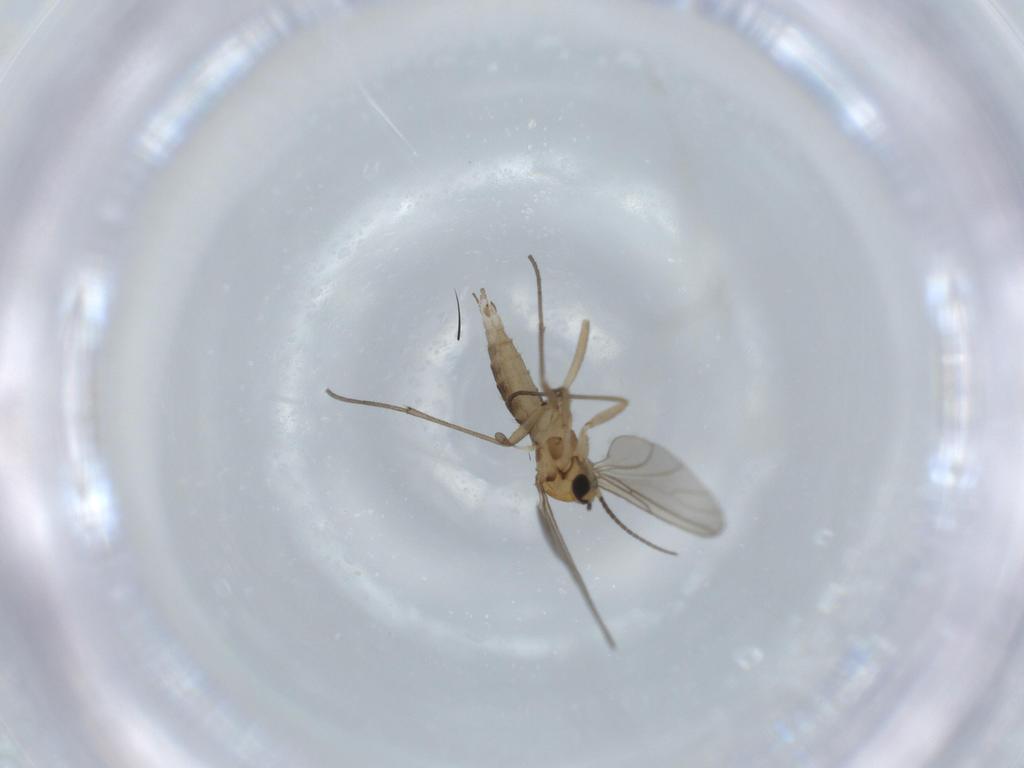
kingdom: Animalia
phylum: Arthropoda
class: Insecta
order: Diptera
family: Sciaridae
